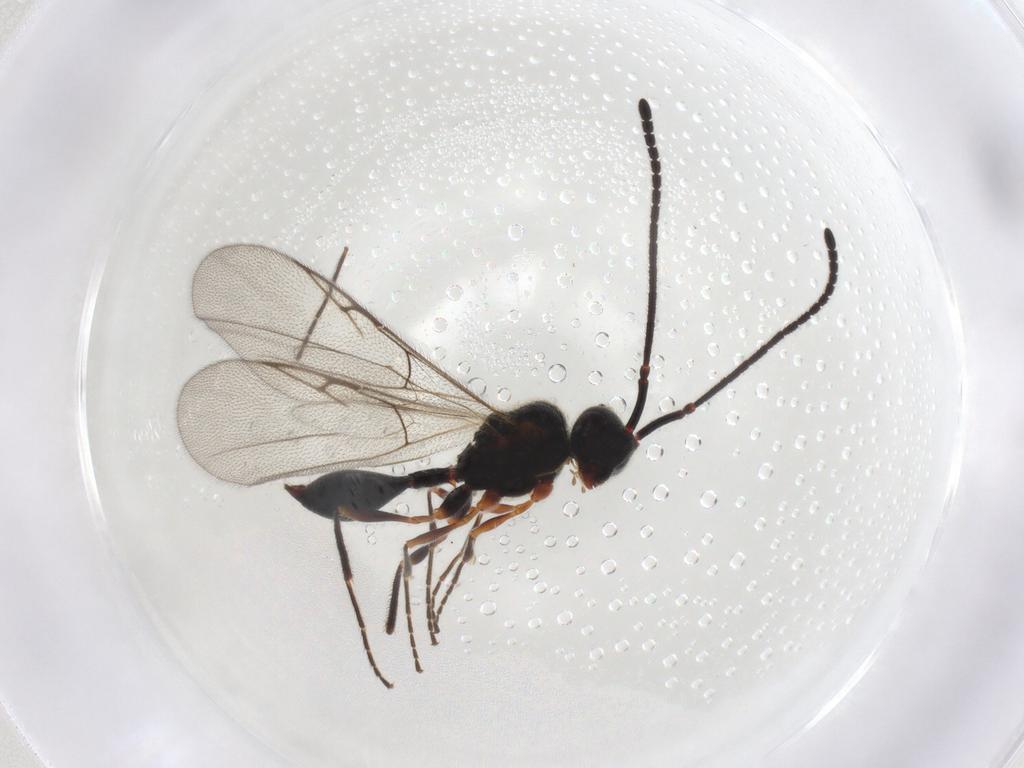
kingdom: Animalia
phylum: Arthropoda
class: Insecta
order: Hymenoptera
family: Diapriidae
